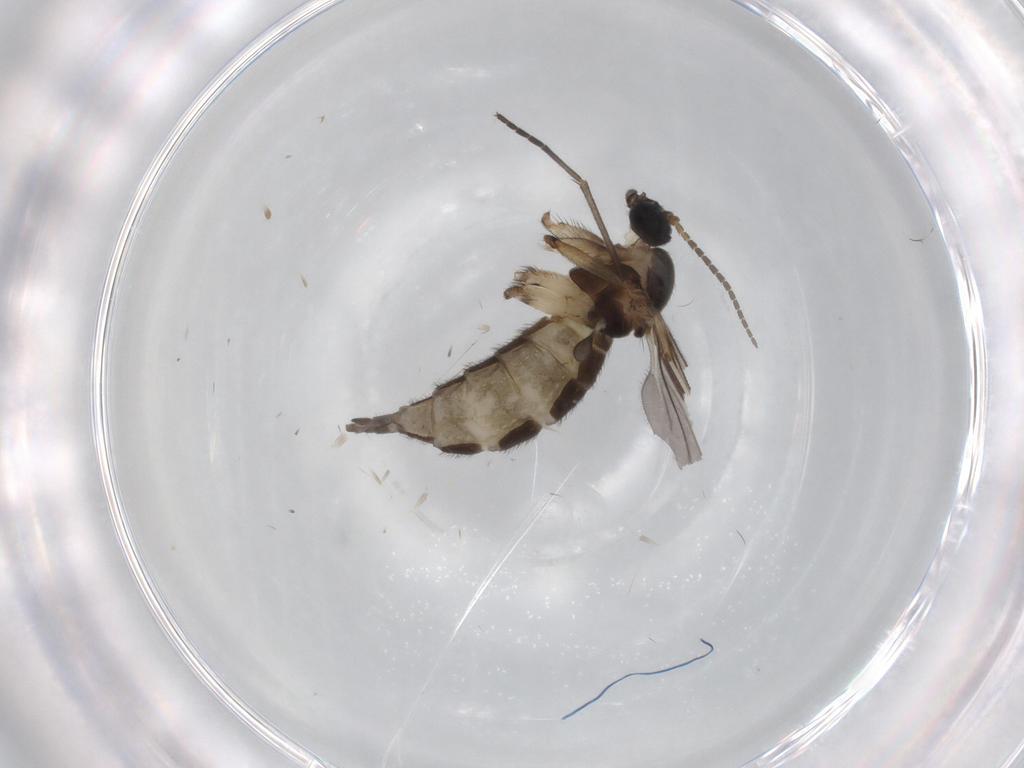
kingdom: Animalia
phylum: Arthropoda
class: Insecta
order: Diptera
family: Sciaridae
